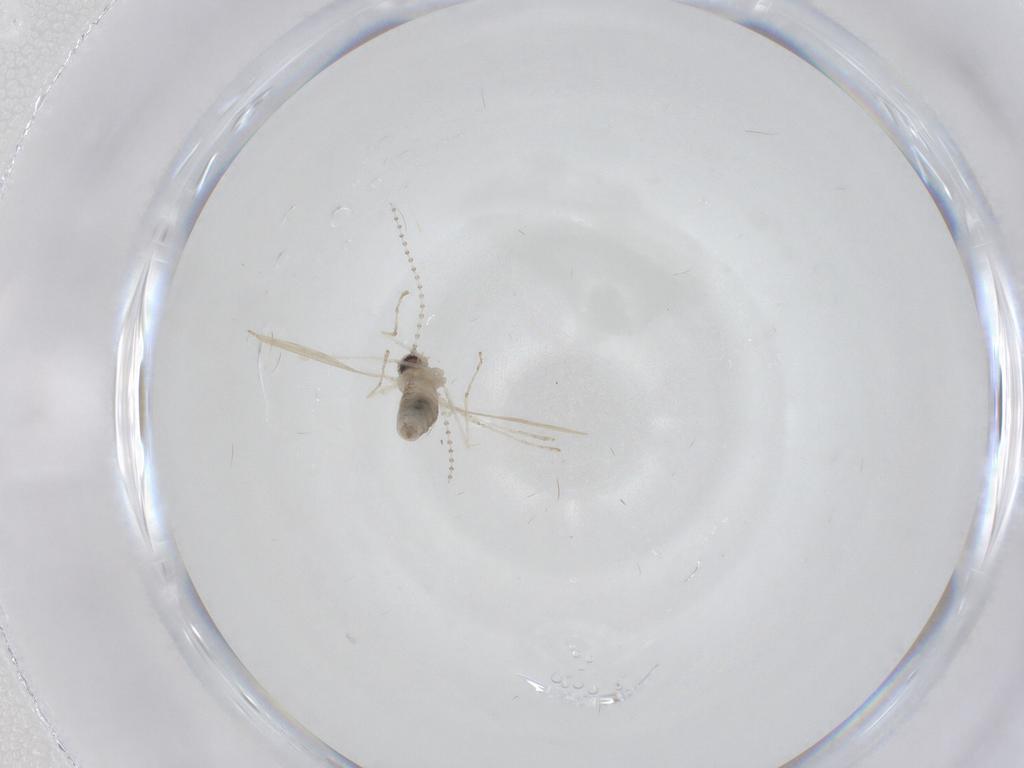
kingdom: Animalia
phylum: Arthropoda
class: Insecta
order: Diptera
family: Cecidomyiidae
